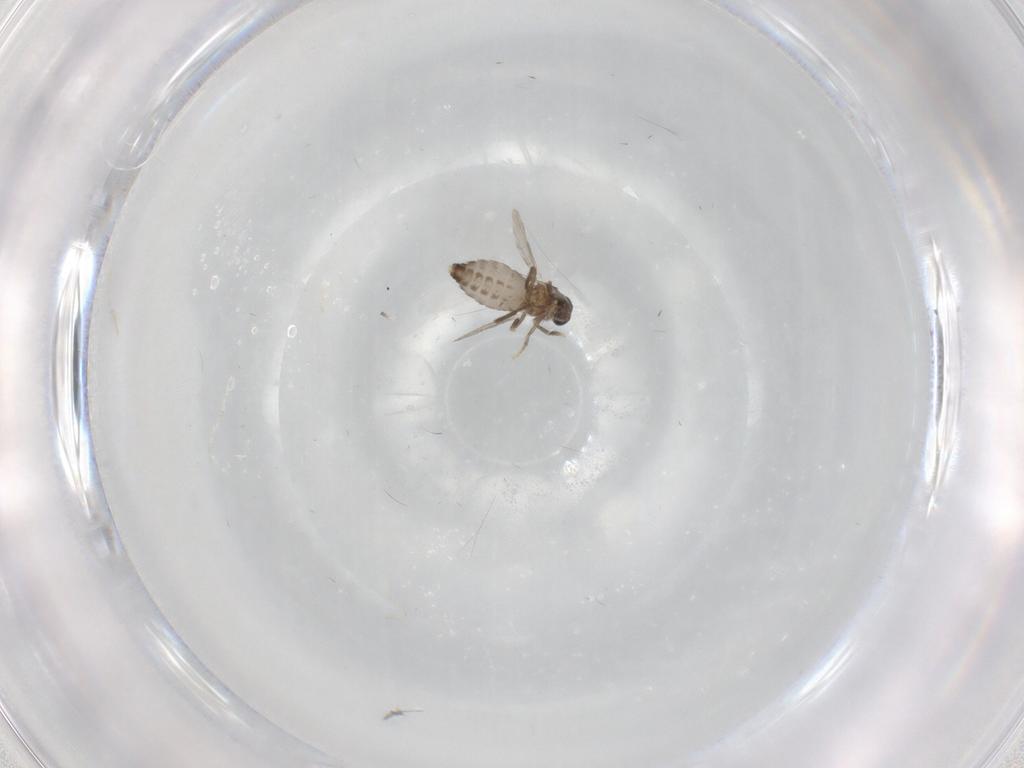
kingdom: Animalia
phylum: Arthropoda
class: Insecta
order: Diptera
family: Ceratopogonidae
